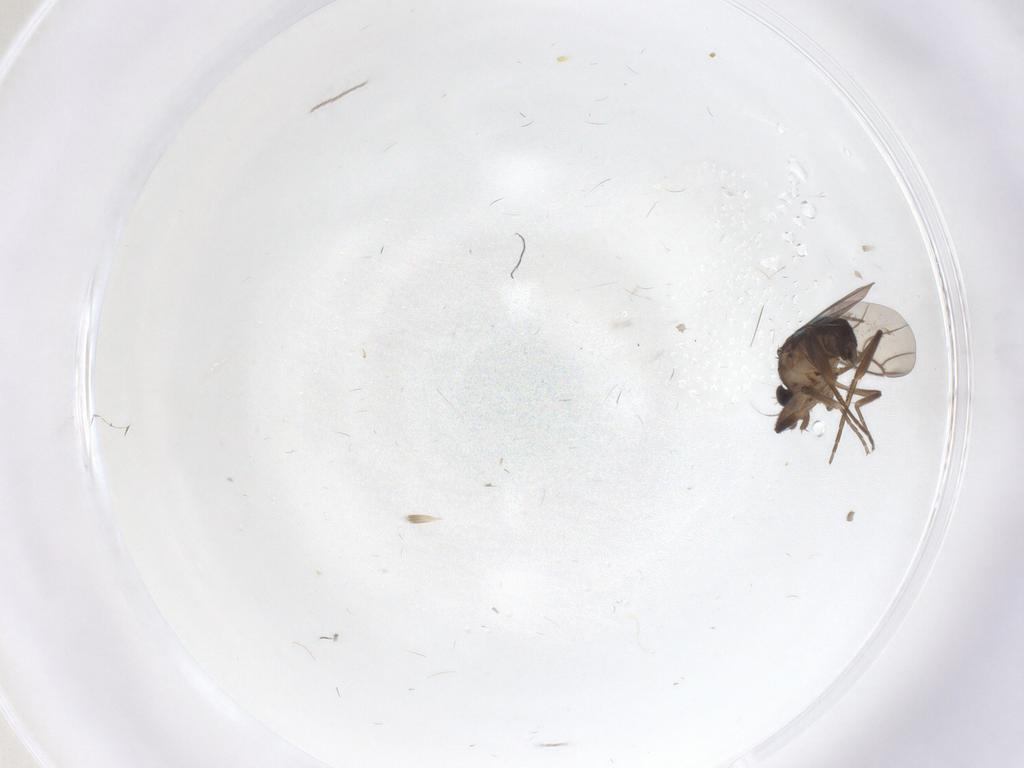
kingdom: Animalia
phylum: Arthropoda
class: Insecta
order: Diptera
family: Phoridae
